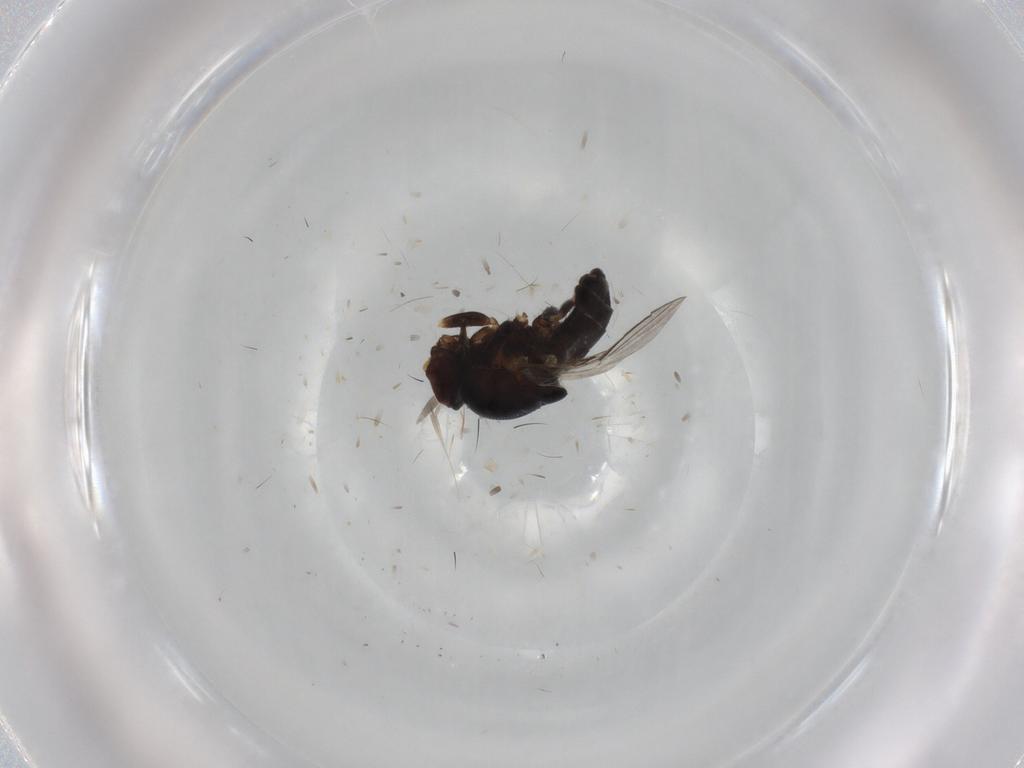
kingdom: Animalia
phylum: Arthropoda
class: Insecta
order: Diptera
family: Chloropidae
